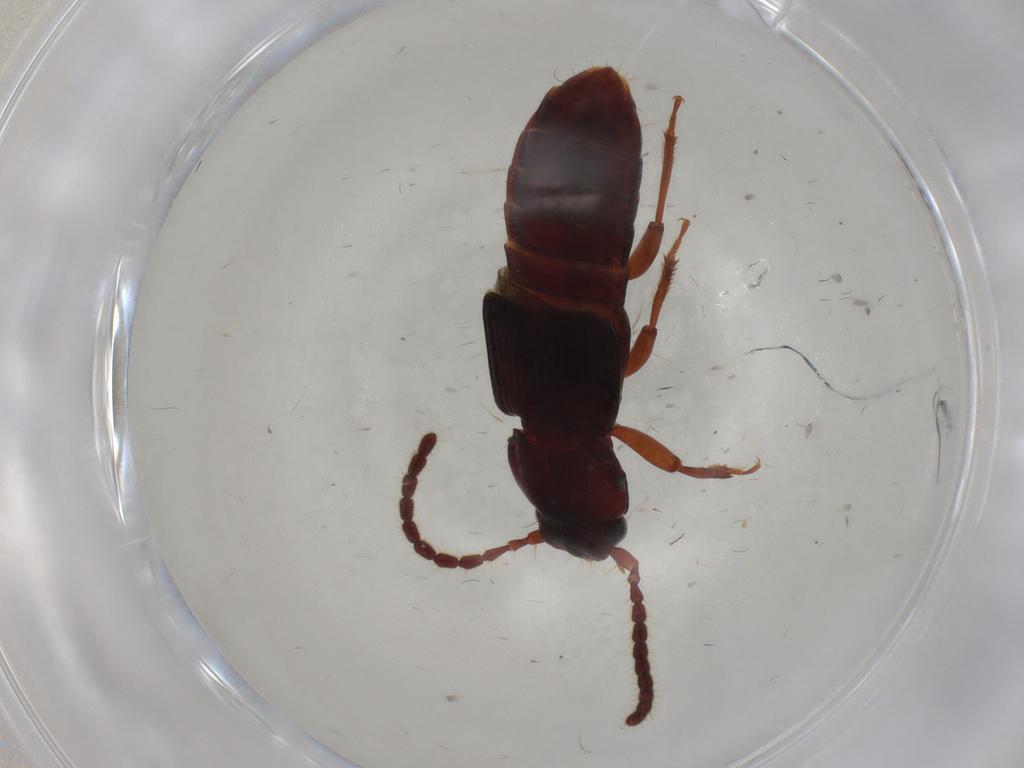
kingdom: Animalia
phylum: Arthropoda
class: Insecta
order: Coleoptera
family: Staphylinidae
